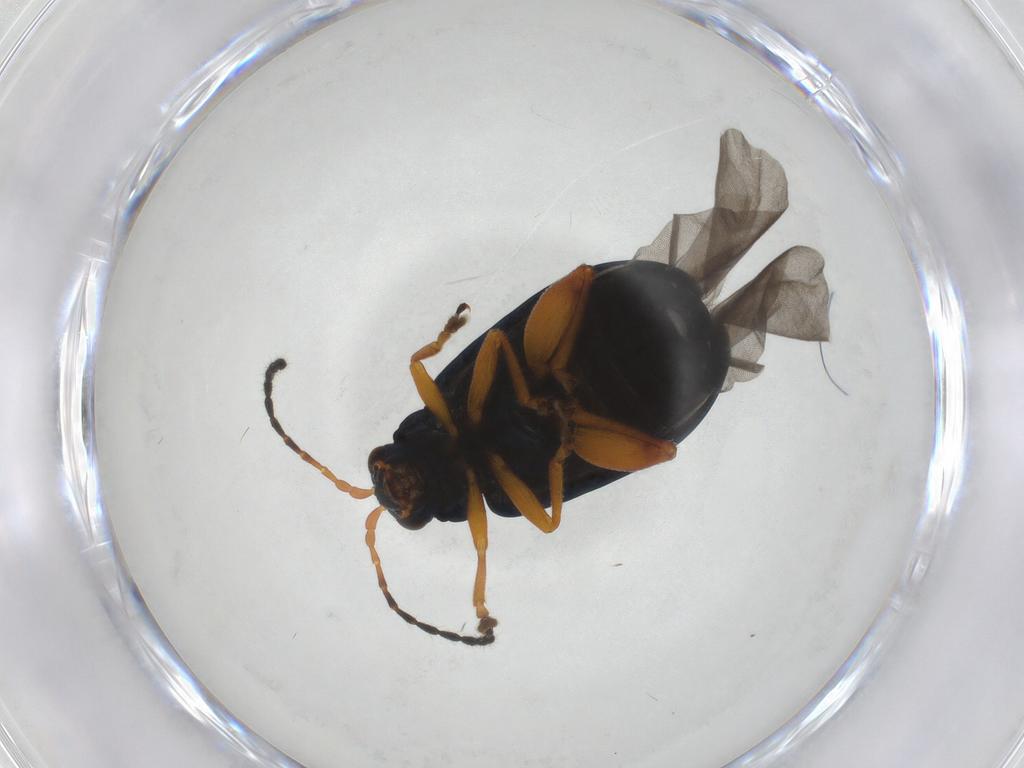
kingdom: Animalia
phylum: Arthropoda
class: Insecta
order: Coleoptera
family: Chrysomelidae
